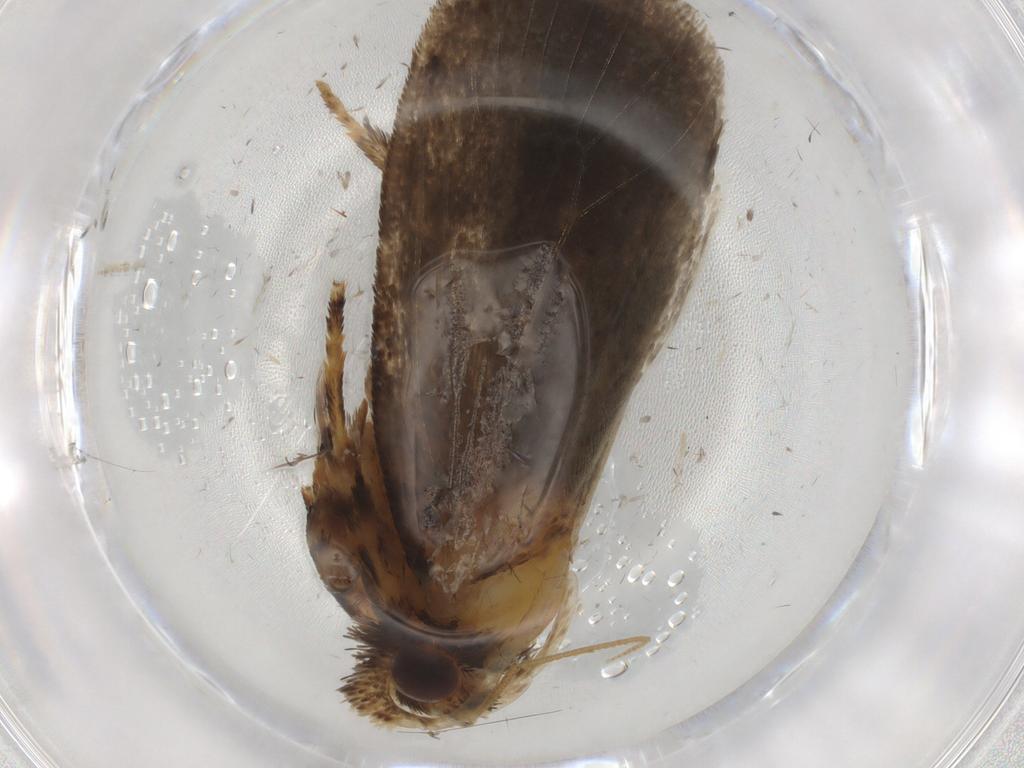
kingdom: Animalia
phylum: Arthropoda
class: Insecta
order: Lepidoptera
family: Tineidae
